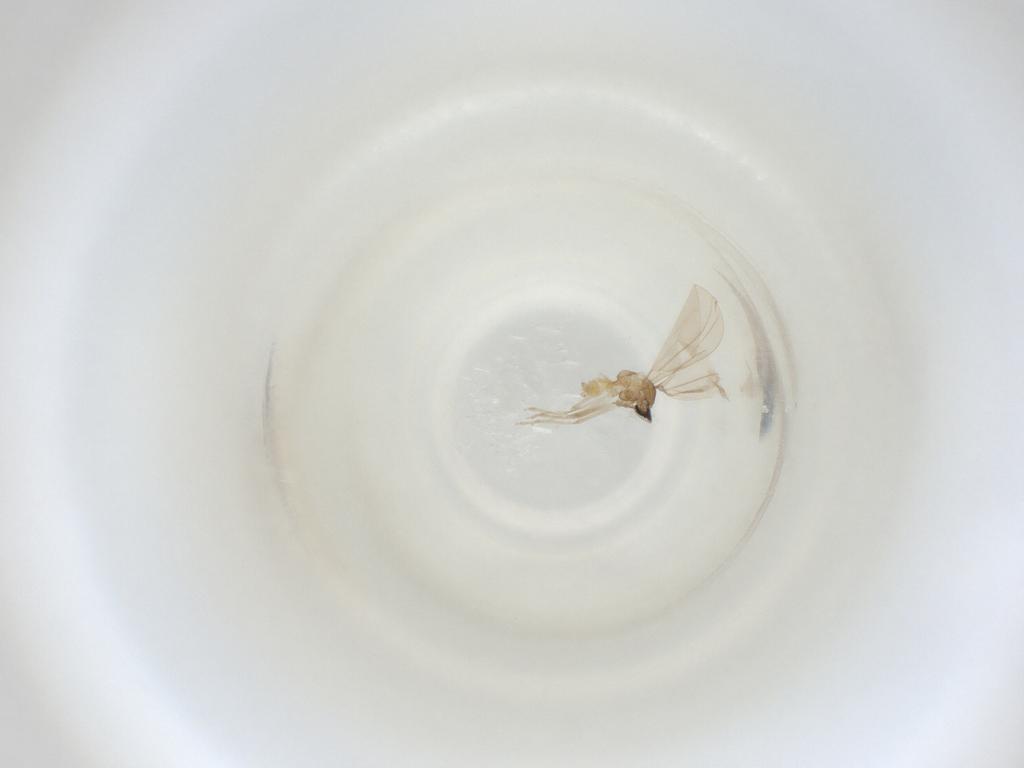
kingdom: Animalia
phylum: Arthropoda
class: Insecta
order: Diptera
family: Cecidomyiidae
